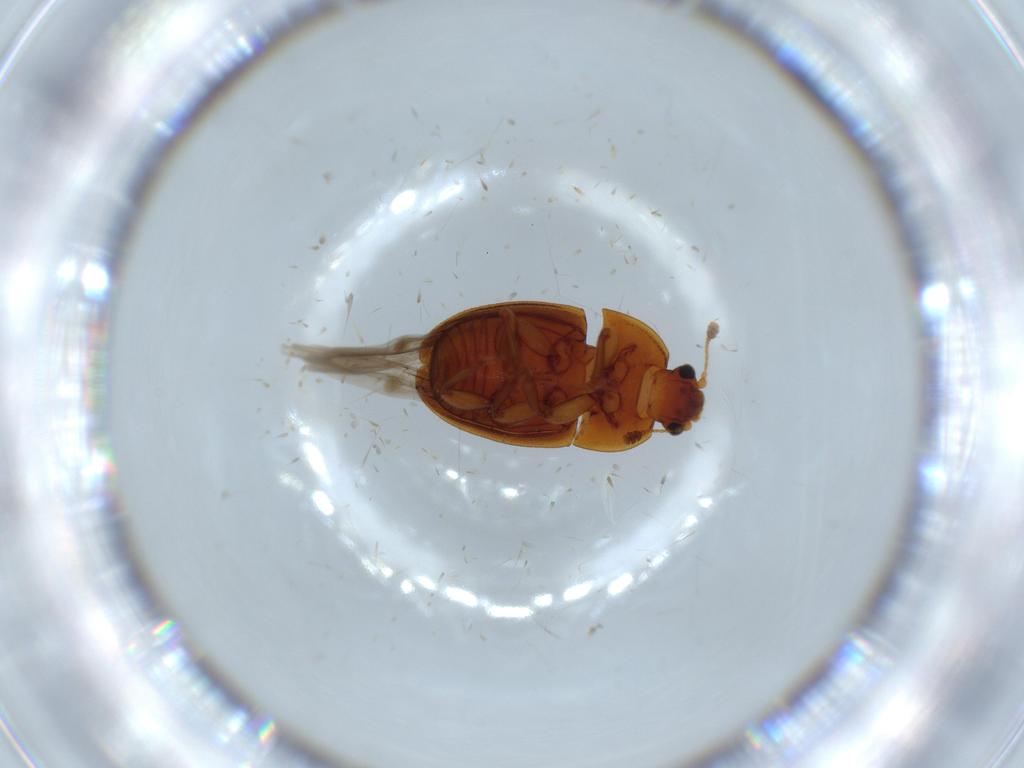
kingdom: Animalia
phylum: Arthropoda
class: Insecta
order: Coleoptera
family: Nitidulidae
